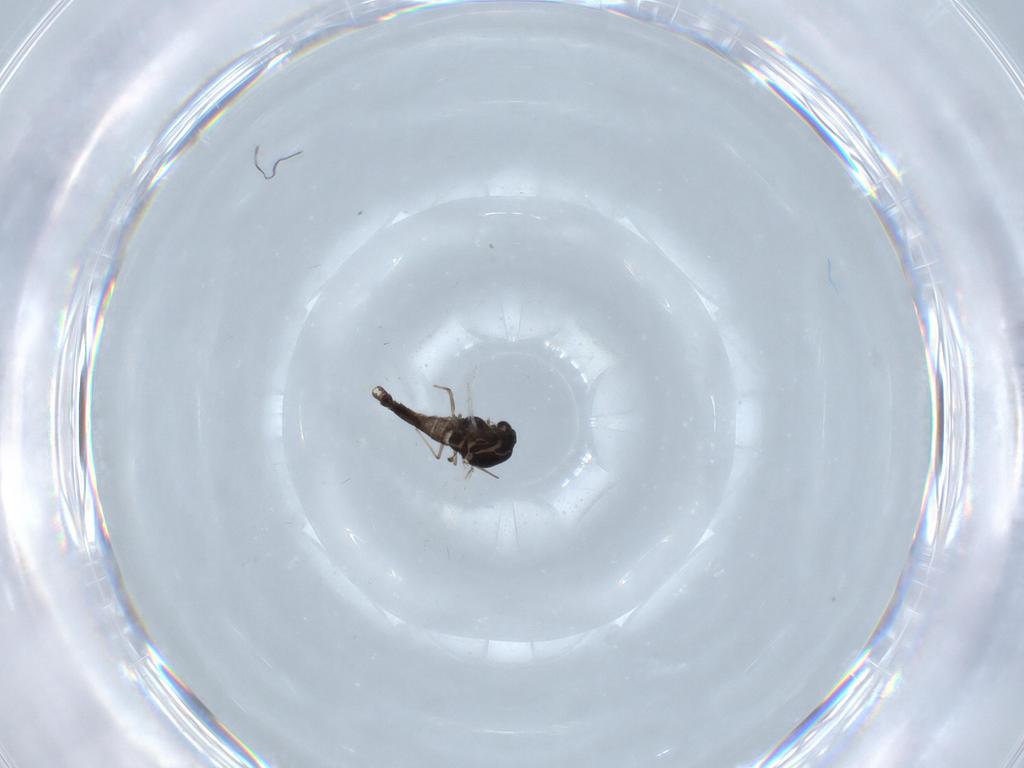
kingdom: Animalia
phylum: Arthropoda
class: Insecta
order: Diptera
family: Chironomidae
